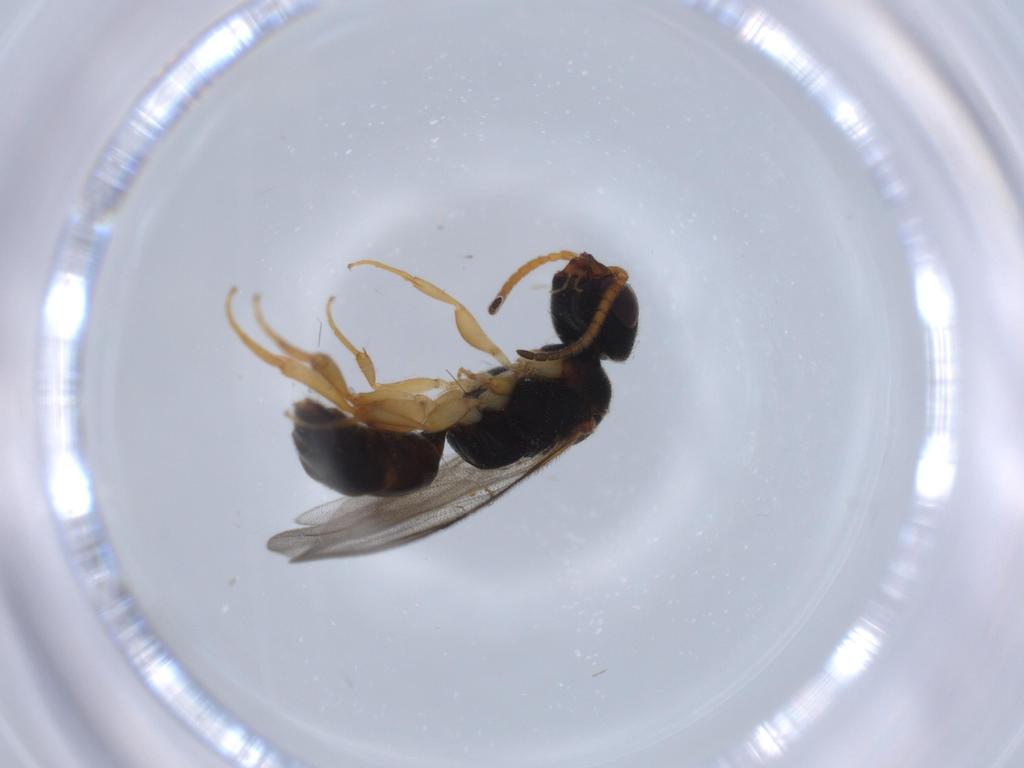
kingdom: Animalia
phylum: Arthropoda
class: Insecta
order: Hymenoptera
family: Bethylidae
